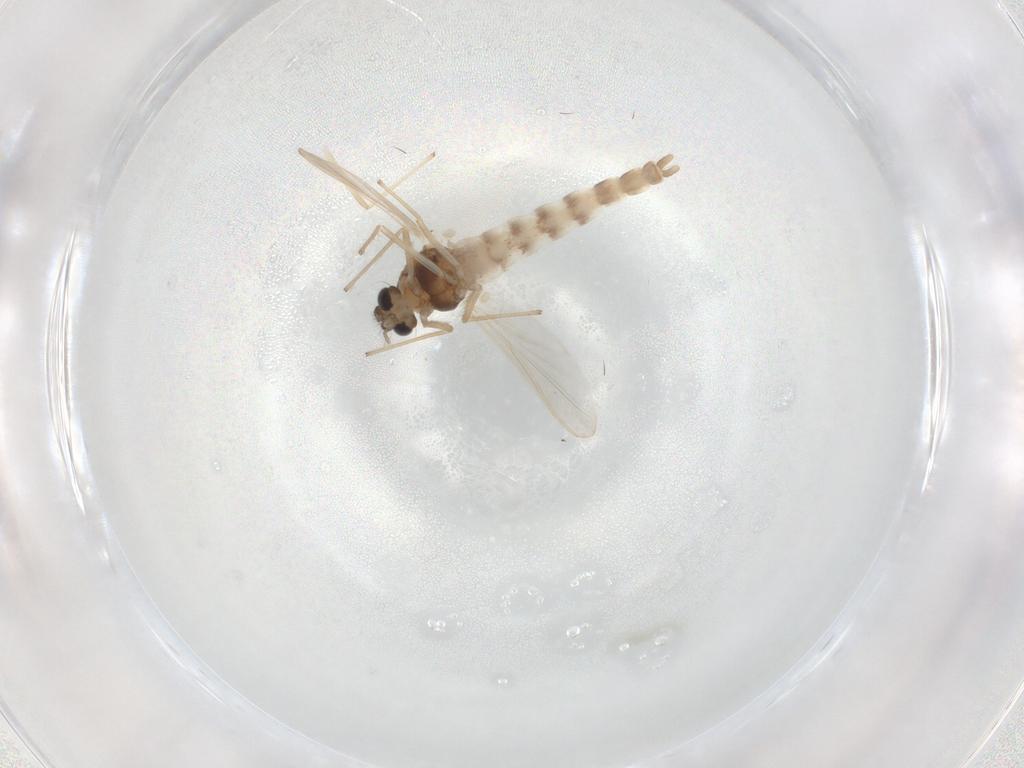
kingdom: Animalia
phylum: Arthropoda
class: Insecta
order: Diptera
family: Chironomidae
